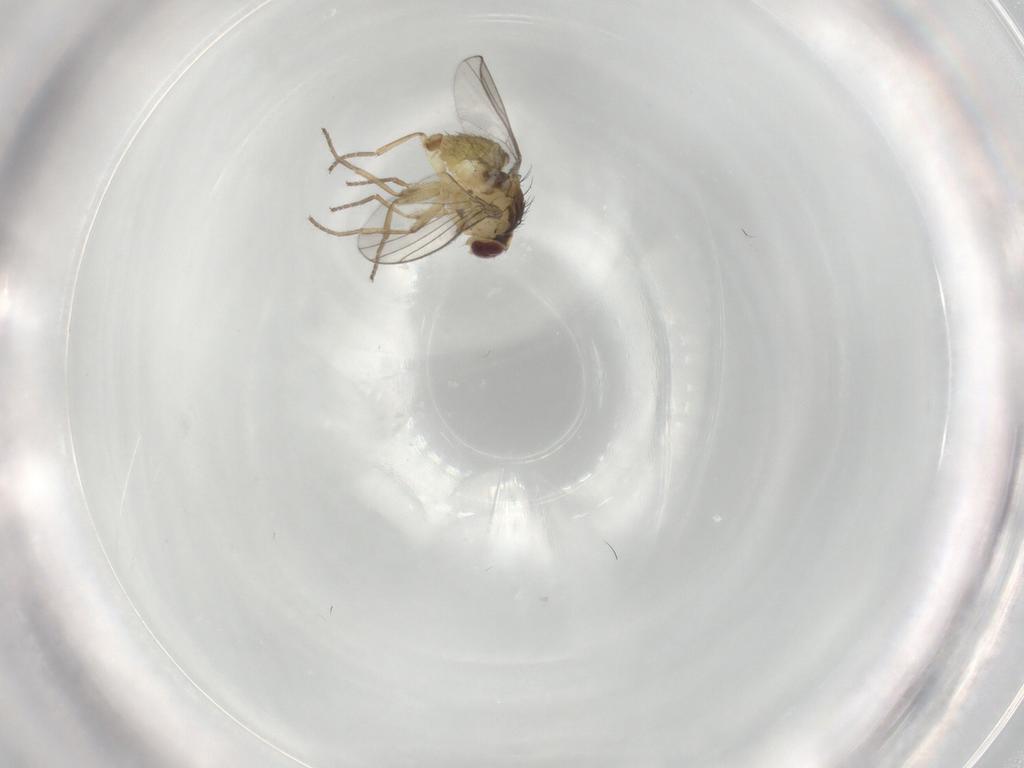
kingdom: Animalia
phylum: Arthropoda
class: Insecta
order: Diptera
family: Agromyzidae
